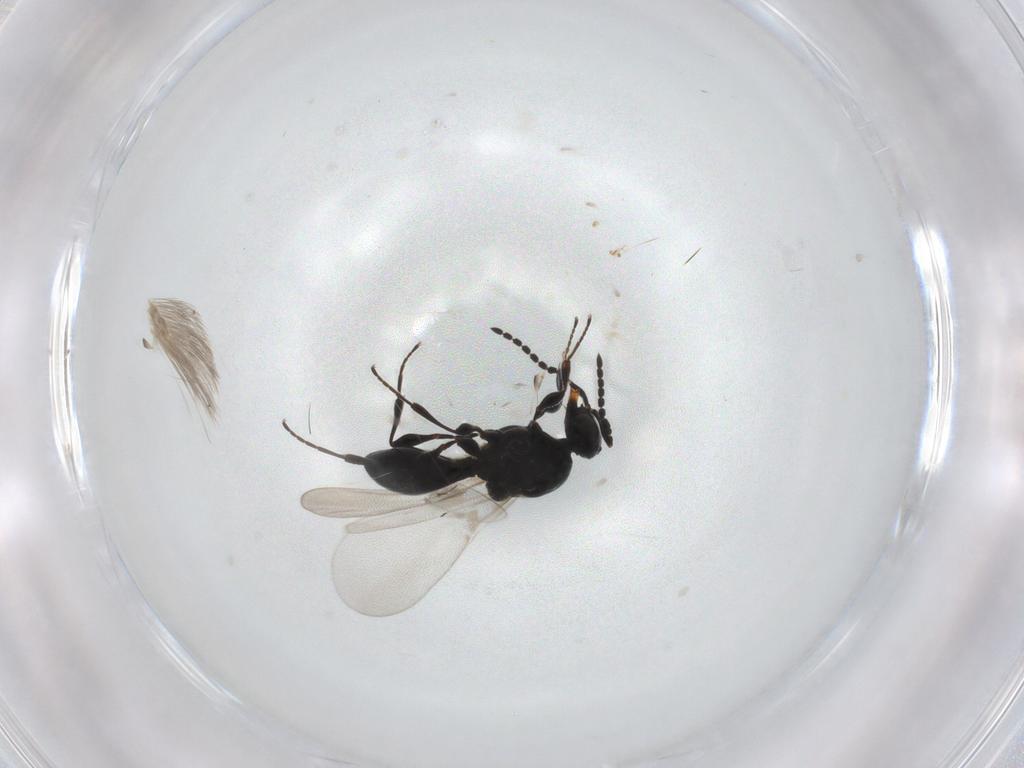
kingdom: Animalia
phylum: Arthropoda
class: Insecta
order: Hymenoptera
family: Platygastridae
